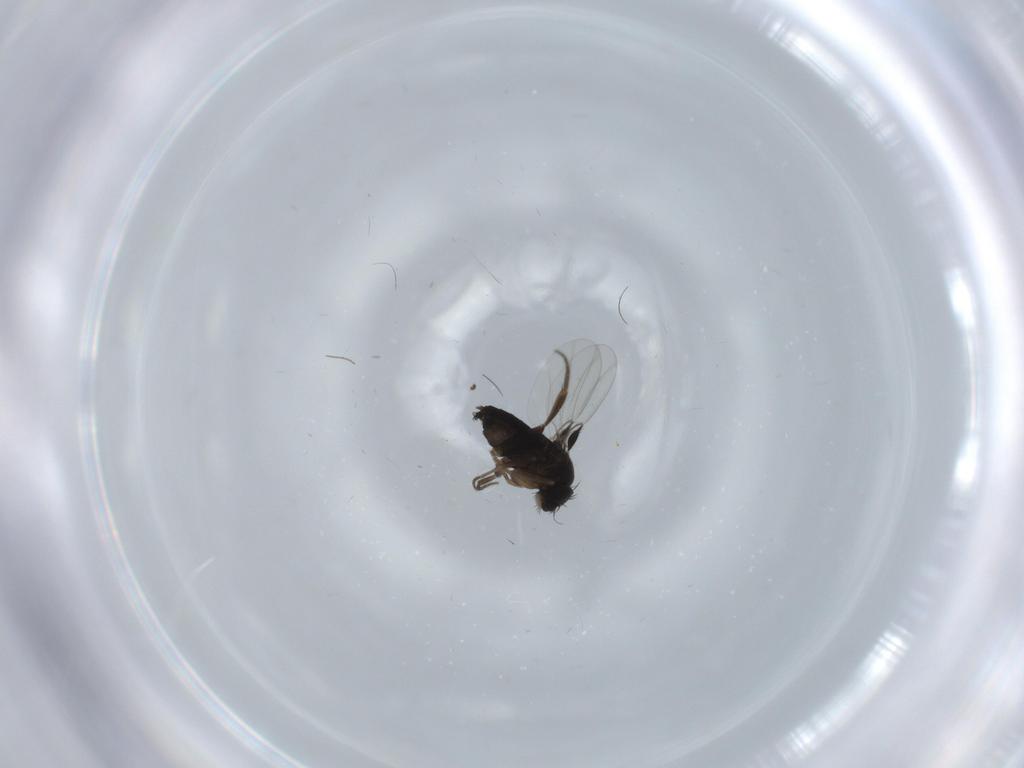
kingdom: Animalia
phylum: Arthropoda
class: Insecta
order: Diptera
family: Phoridae
